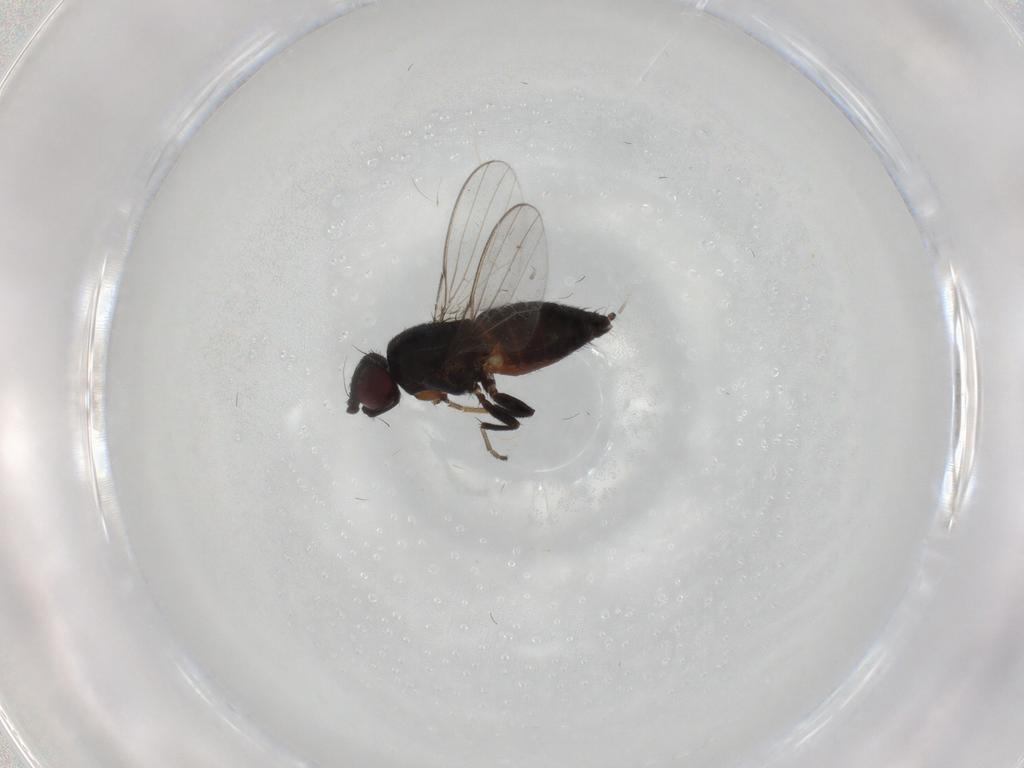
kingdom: Animalia
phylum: Arthropoda
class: Insecta
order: Diptera
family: Milichiidae
